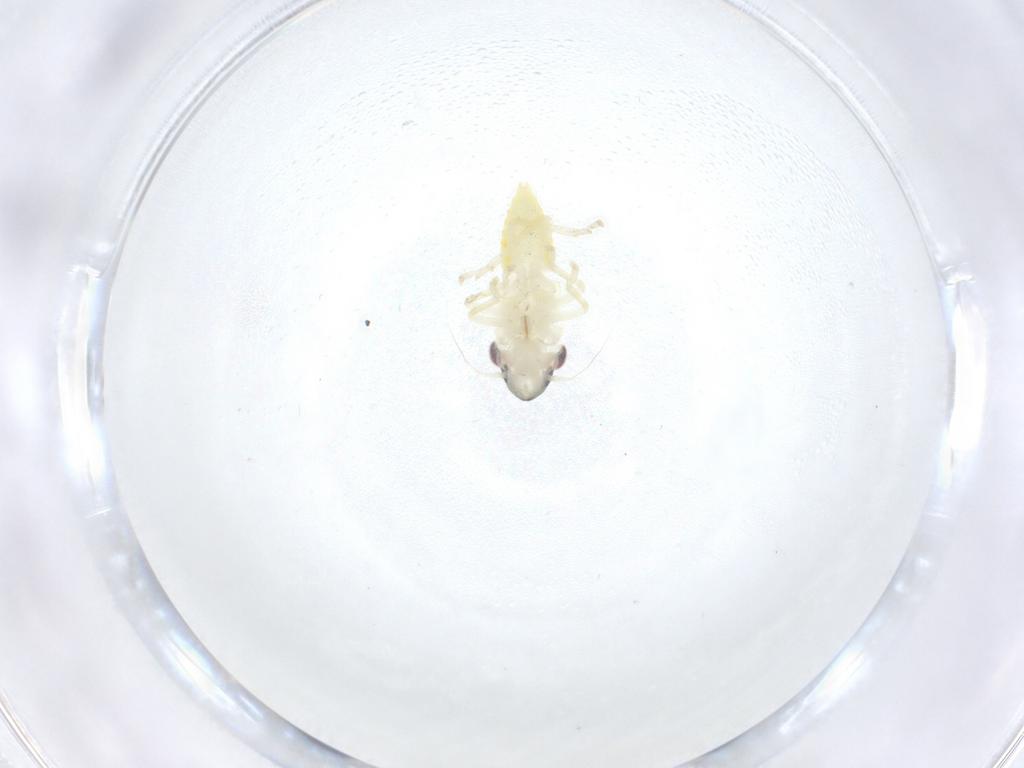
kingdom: Animalia
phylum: Arthropoda
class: Insecta
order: Hemiptera
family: Cicadellidae
